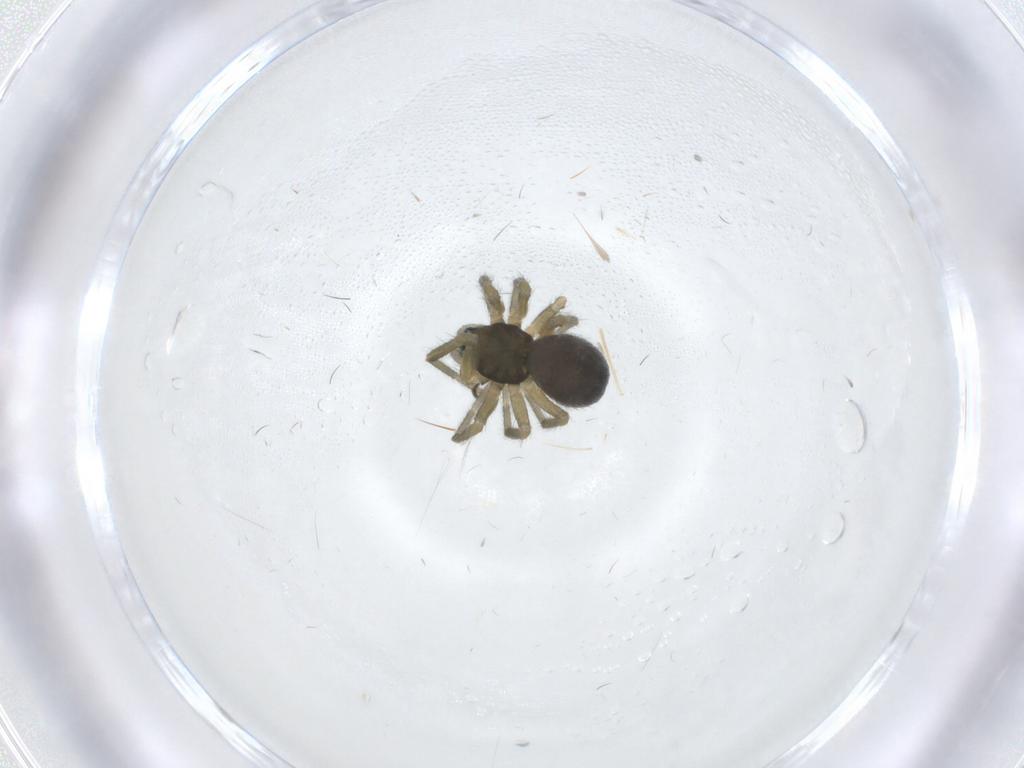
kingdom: Animalia
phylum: Arthropoda
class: Arachnida
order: Araneae
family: Linyphiidae
